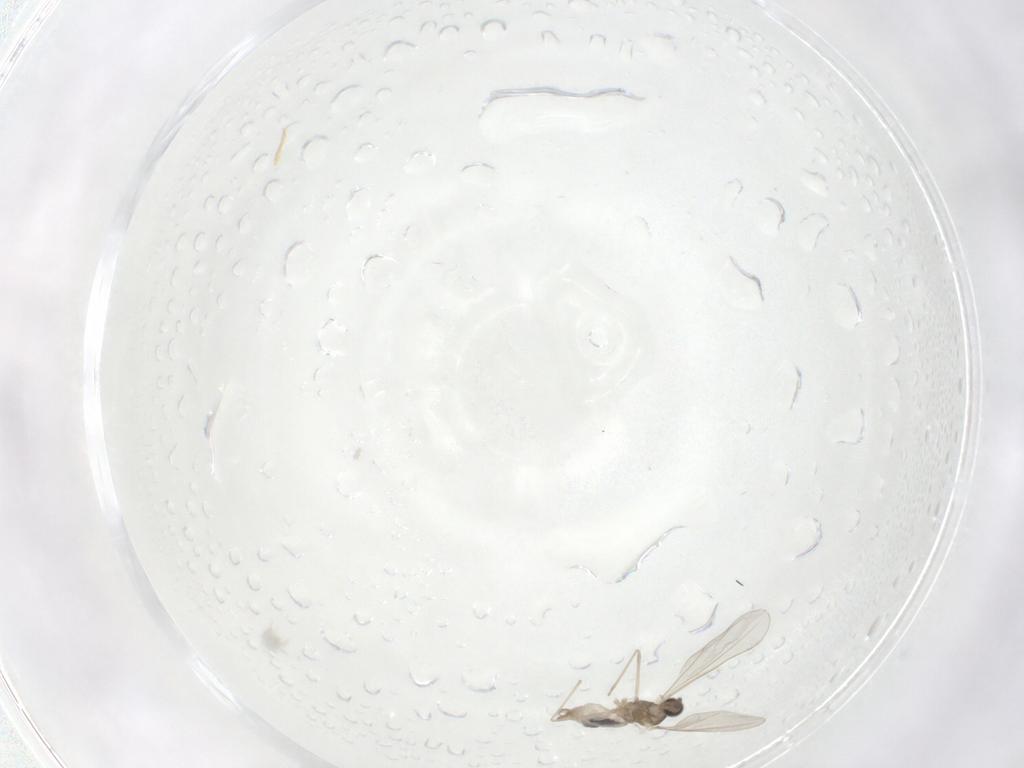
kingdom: Animalia
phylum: Arthropoda
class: Insecta
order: Diptera
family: Cecidomyiidae
